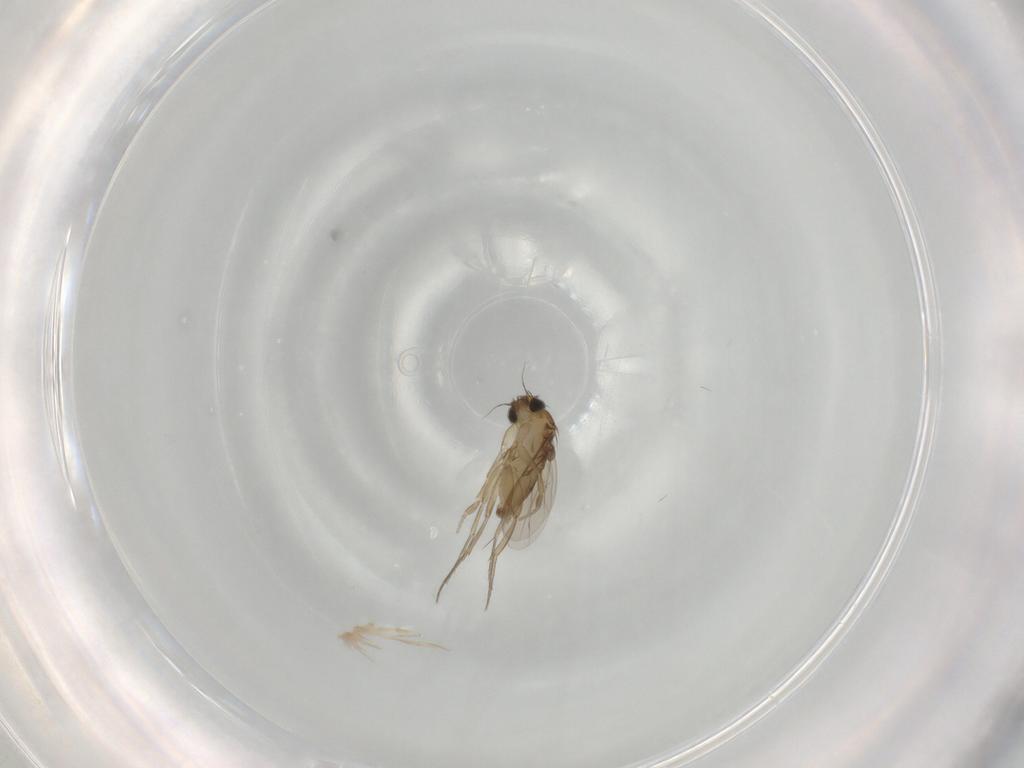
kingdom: Animalia
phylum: Arthropoda
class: Insecta
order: Diptera
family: Phoridae
